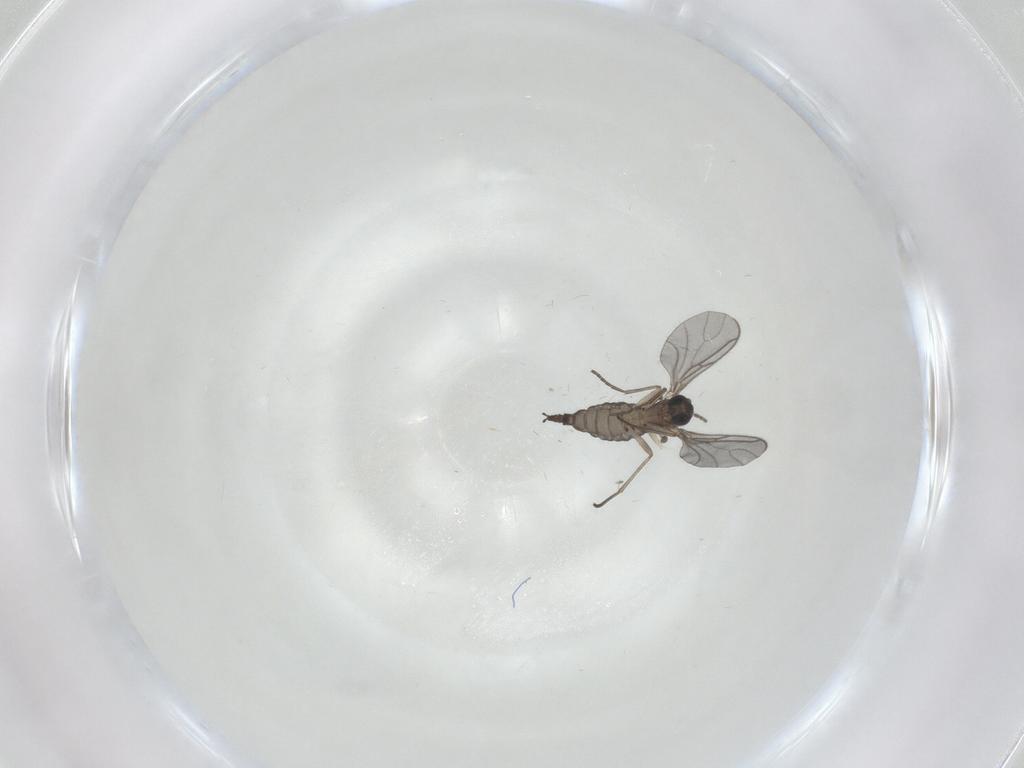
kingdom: Animalia
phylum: Arthropoda
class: Insecta
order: Diptera
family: Sciaridae
